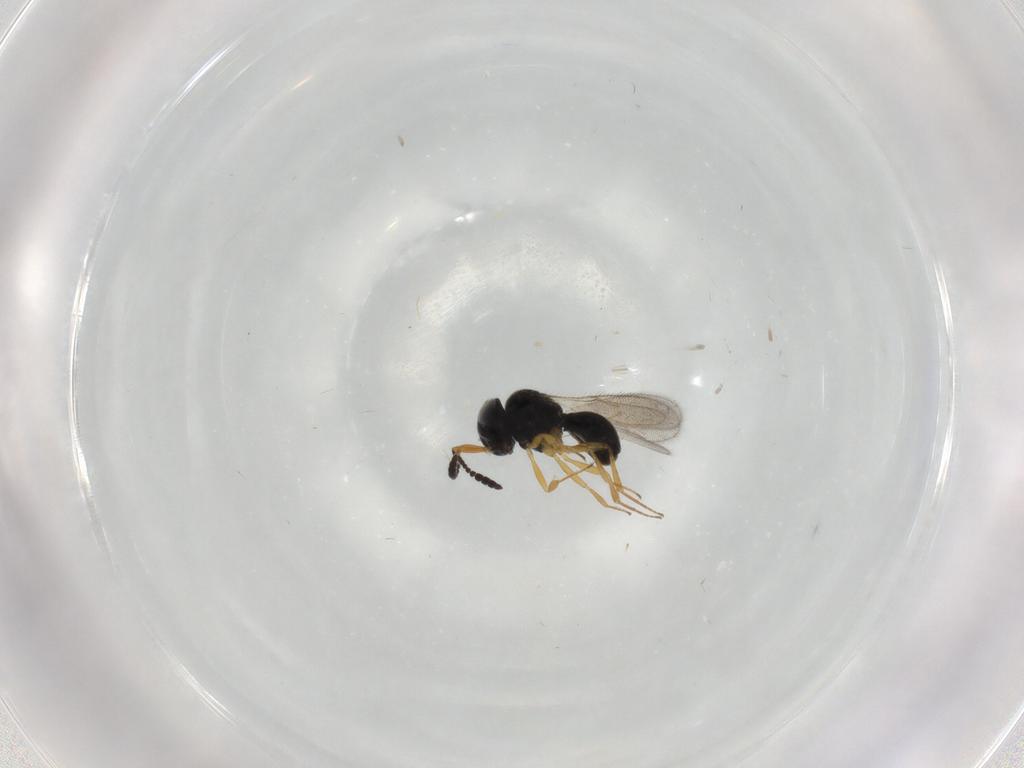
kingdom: Animalia
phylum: Arthropoda
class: Insecta
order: Hymenoptera
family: Scelionidae
